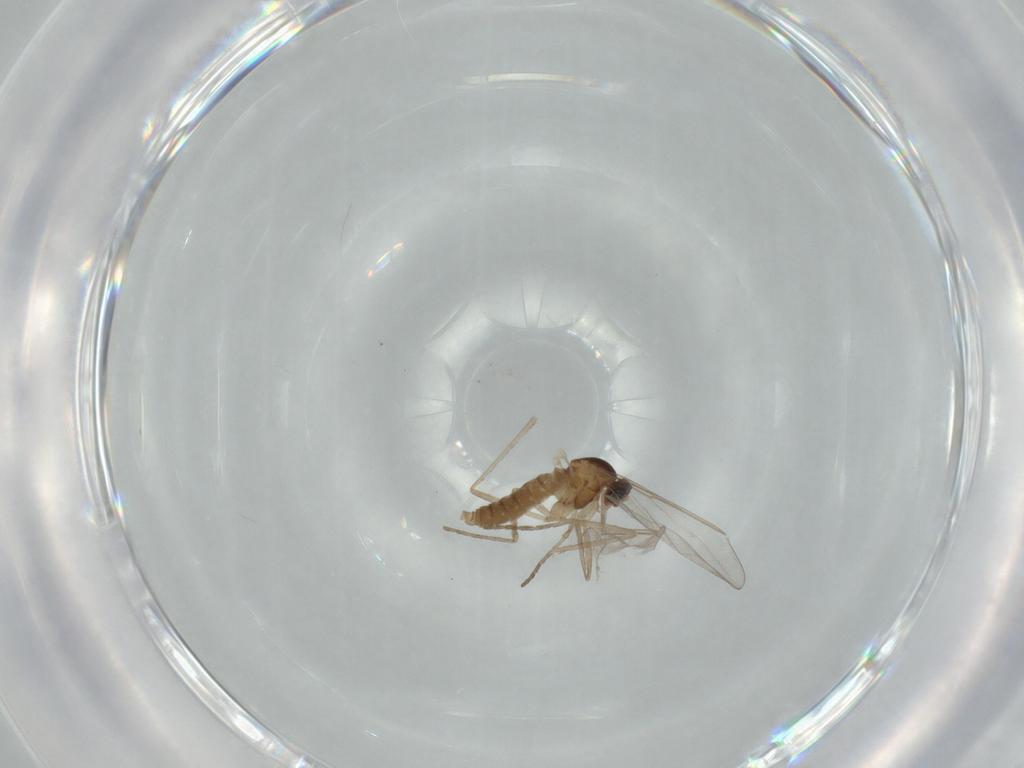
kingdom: Animalia
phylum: Arthropoda
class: Insecta
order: Diptera
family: Cecidomyiidae
